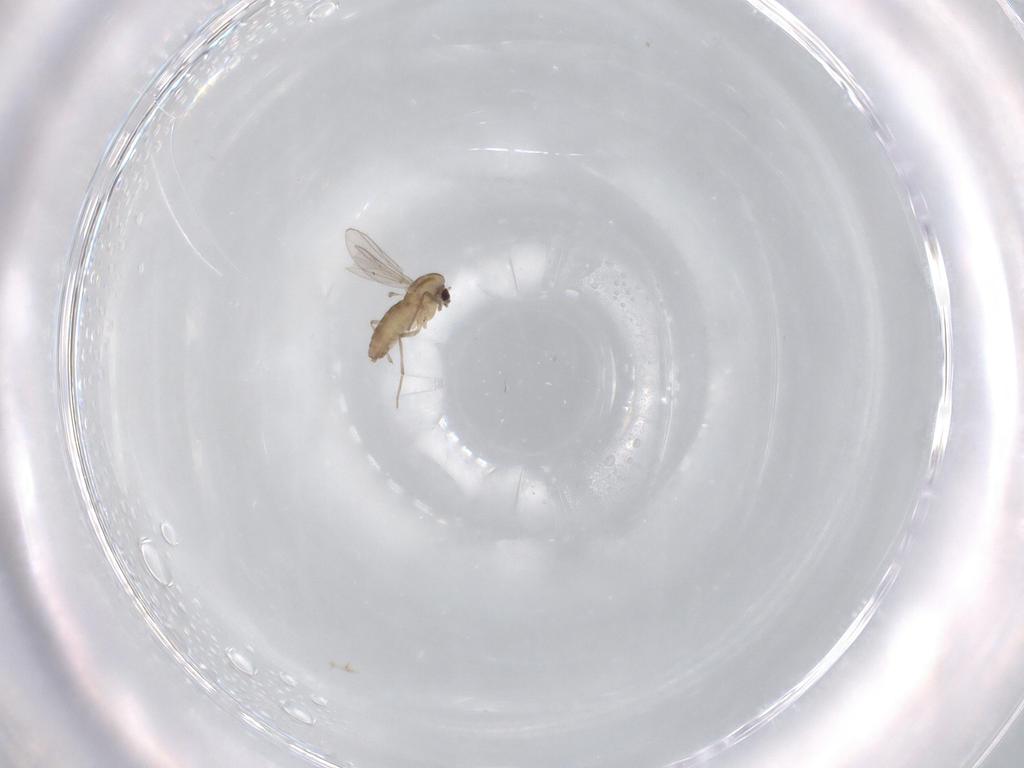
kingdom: Animalia
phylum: Arthropoda
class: Insecta
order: Diptera
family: Chironomidae
